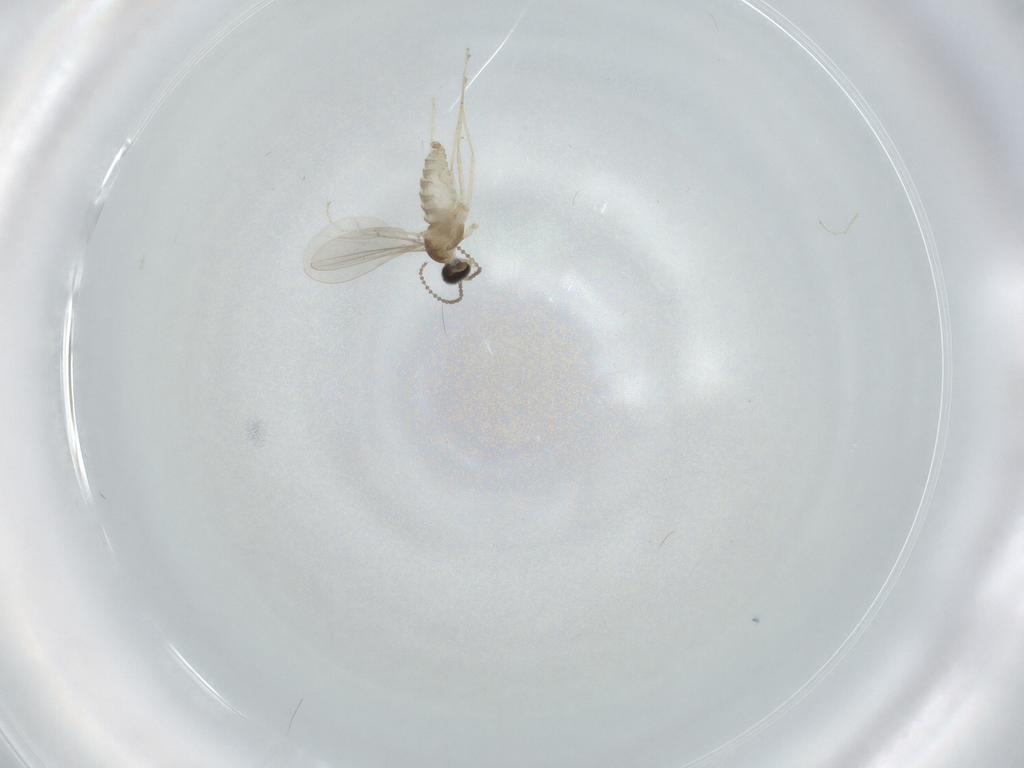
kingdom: Animalia
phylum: Arthropoda
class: Insecta
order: Diptera
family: Cecidomyiidae
